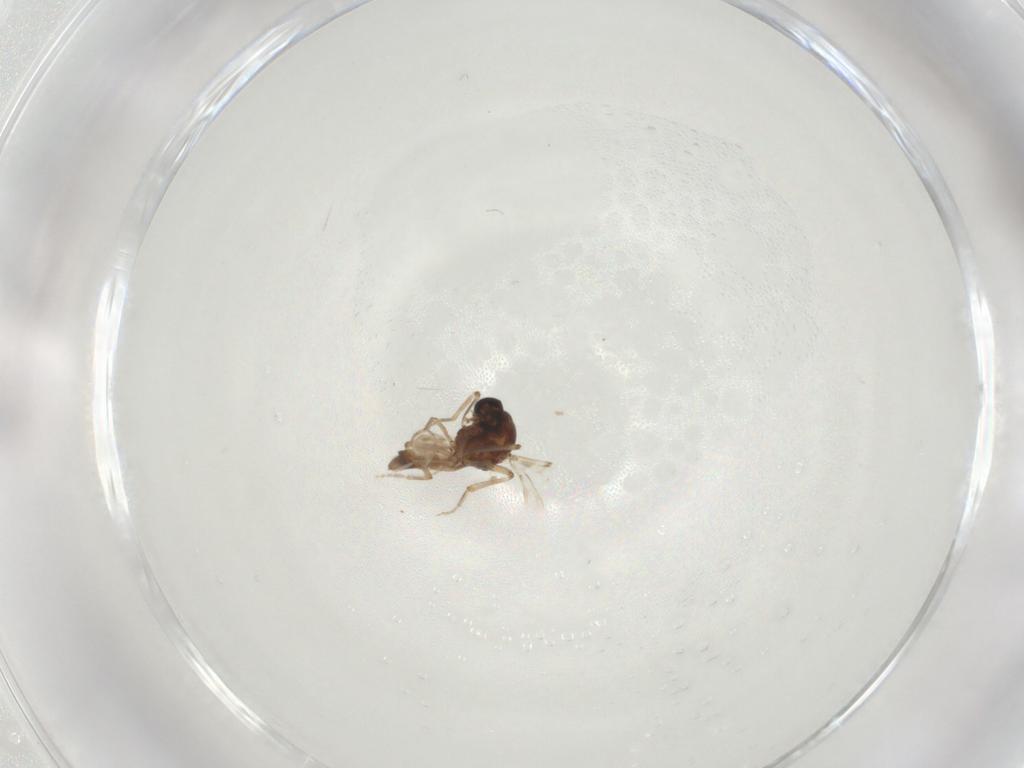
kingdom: Animalia
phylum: Arthropoda
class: Insecta
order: Diptera
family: Ceratopogonidae
